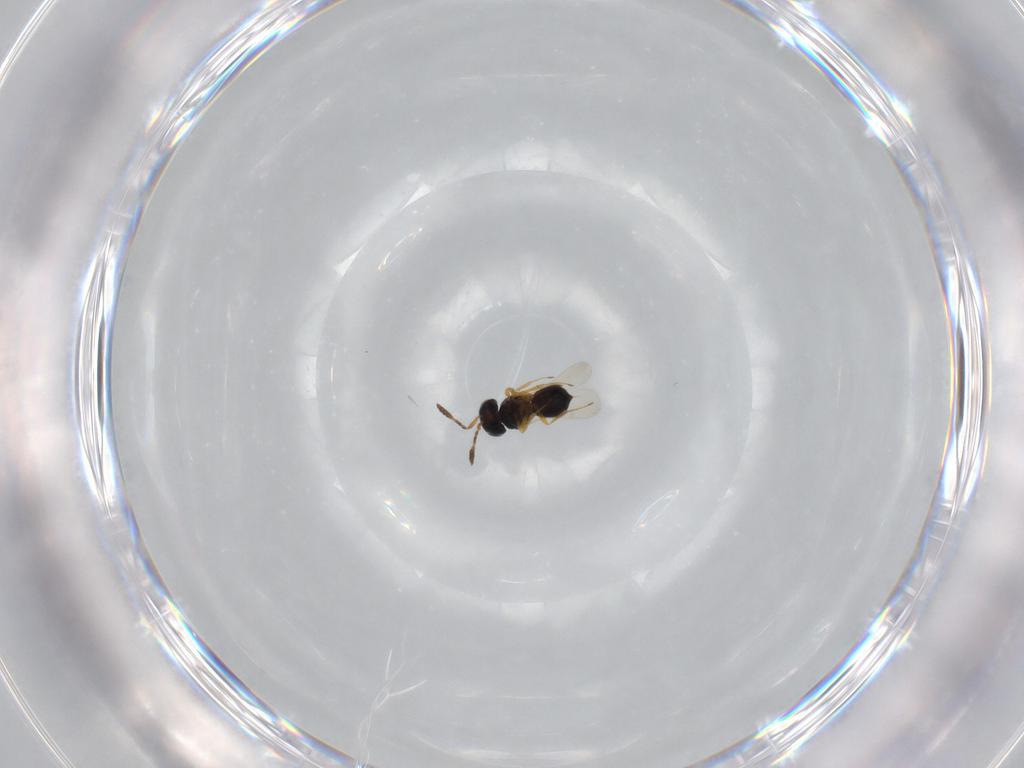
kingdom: Animalia
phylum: Arthropoda
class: Insecta
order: Hymenoptera
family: Scelionidae
